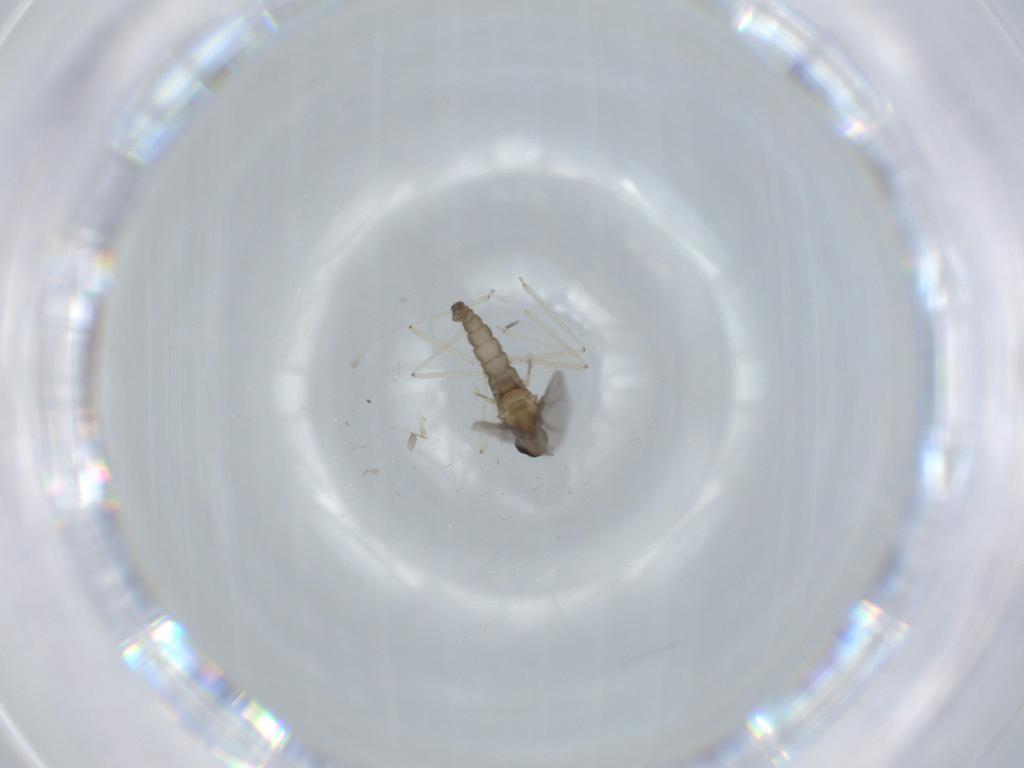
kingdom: Animalia
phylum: Arthropoda
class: Insecta
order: Diptera
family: Cecidomyiidae
